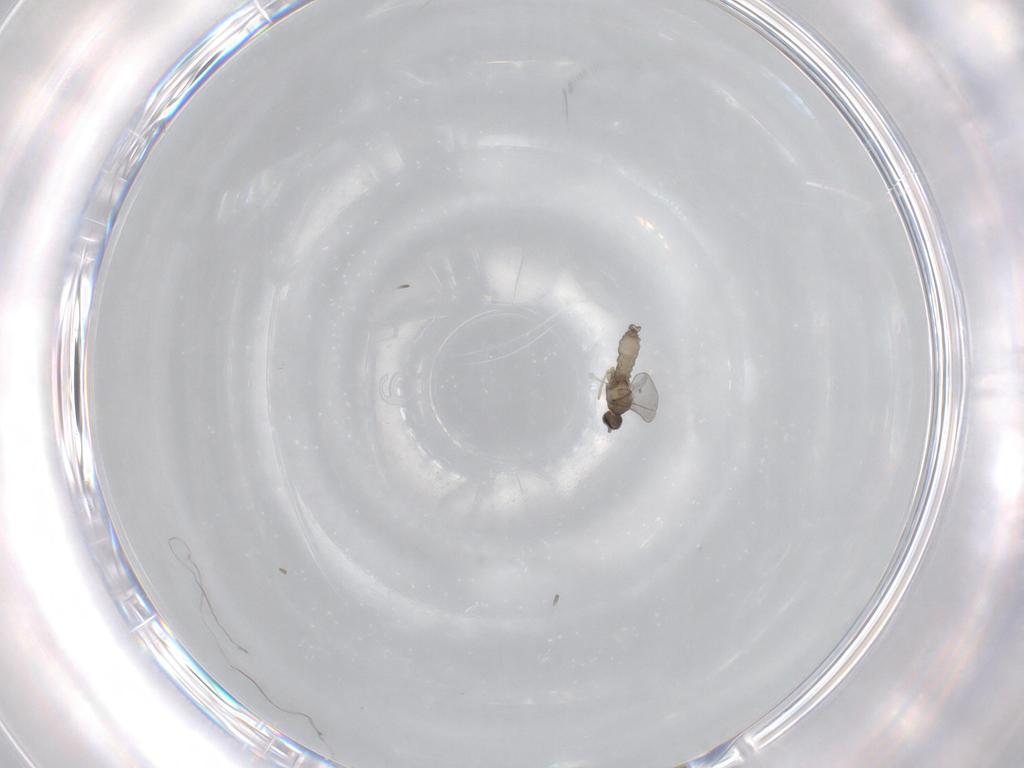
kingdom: Animalia
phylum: Arthropoda
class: Insecta
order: Diptera
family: Cecidomyiidae
